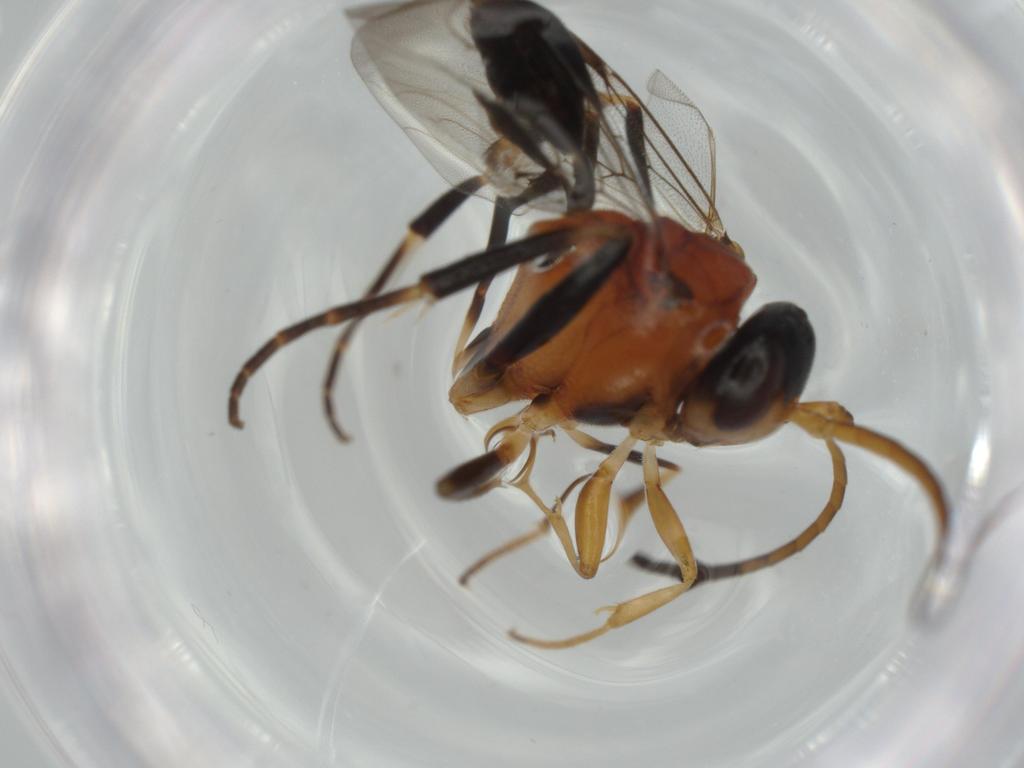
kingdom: Animalia
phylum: Arthropoda
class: Insecta
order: Hymenoptera
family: Evaniidae
